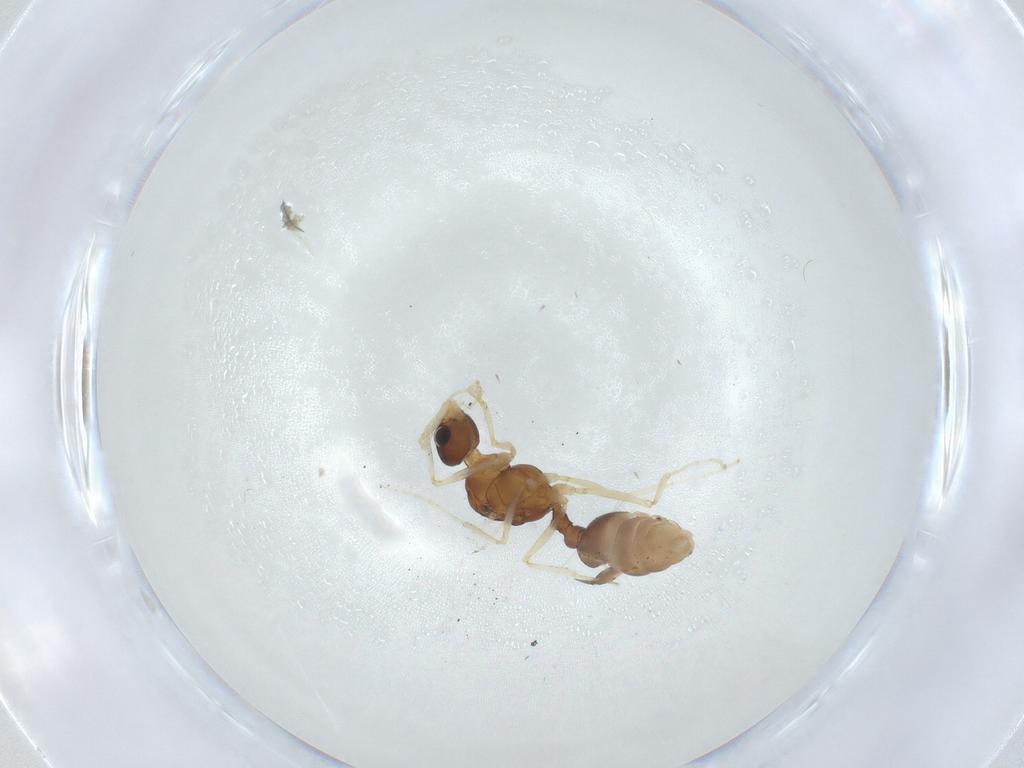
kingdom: Animalia
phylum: Arthropoda
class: Insecta
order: Hymenoptera
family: Formicidae
